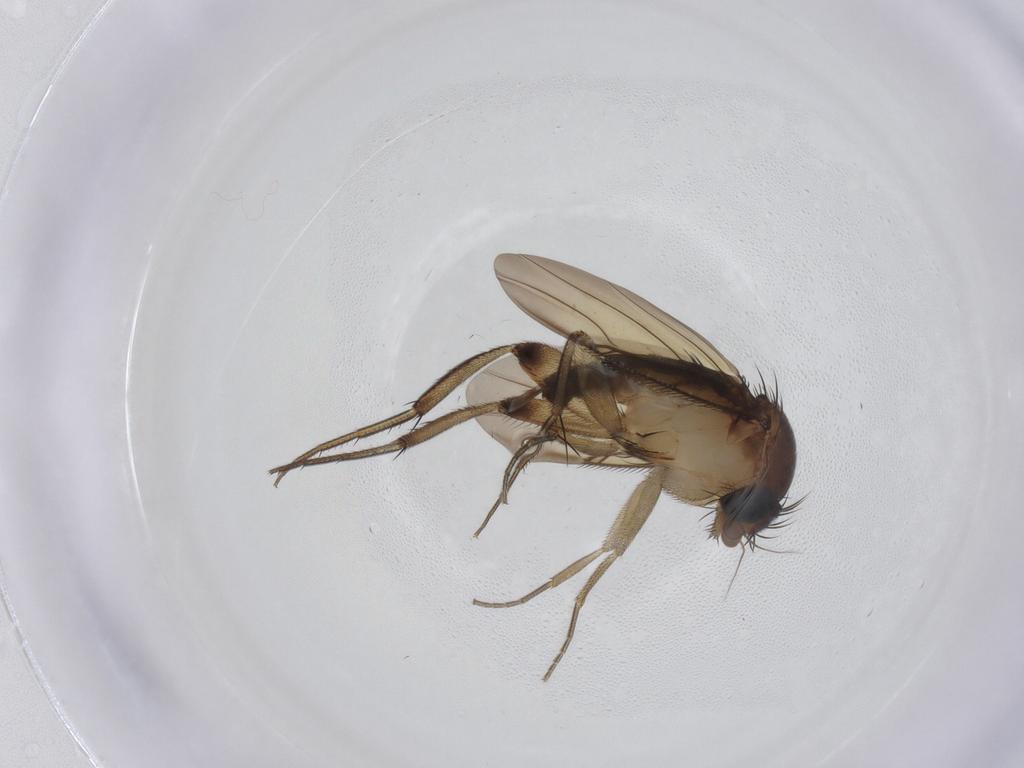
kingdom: Animalia
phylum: Arthropoda
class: Insecta
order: Diptera
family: Phoridae
